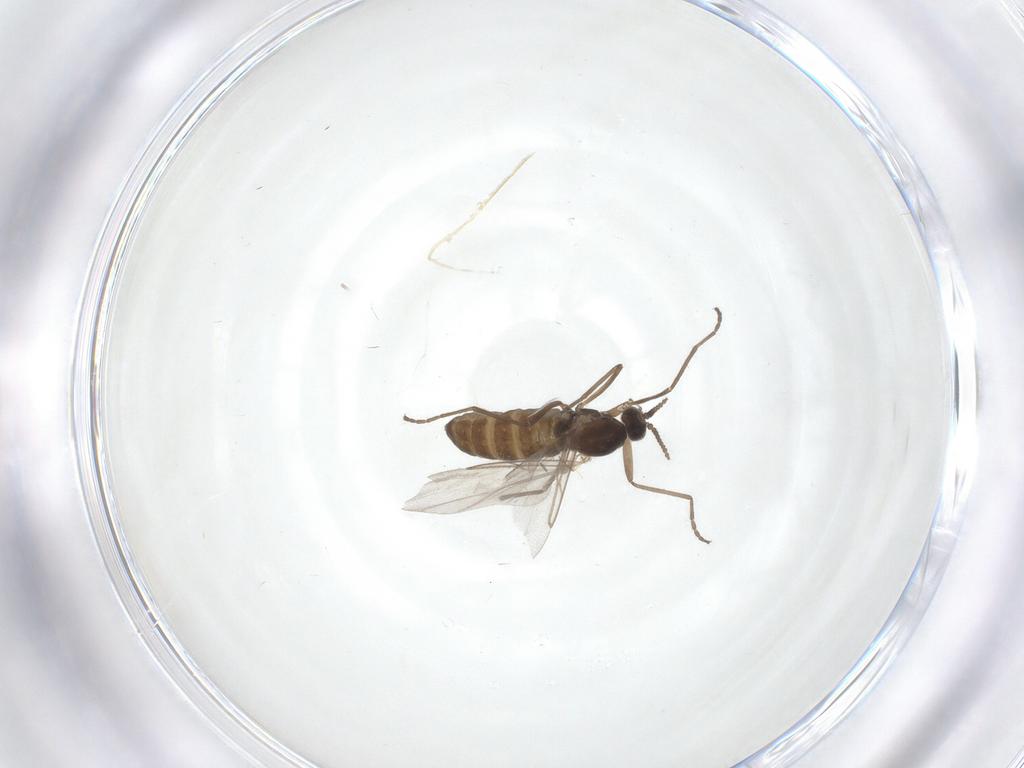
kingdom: Animalia
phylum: Arthropoda
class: Insecta
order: Diptera
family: Cecidomyiidae
